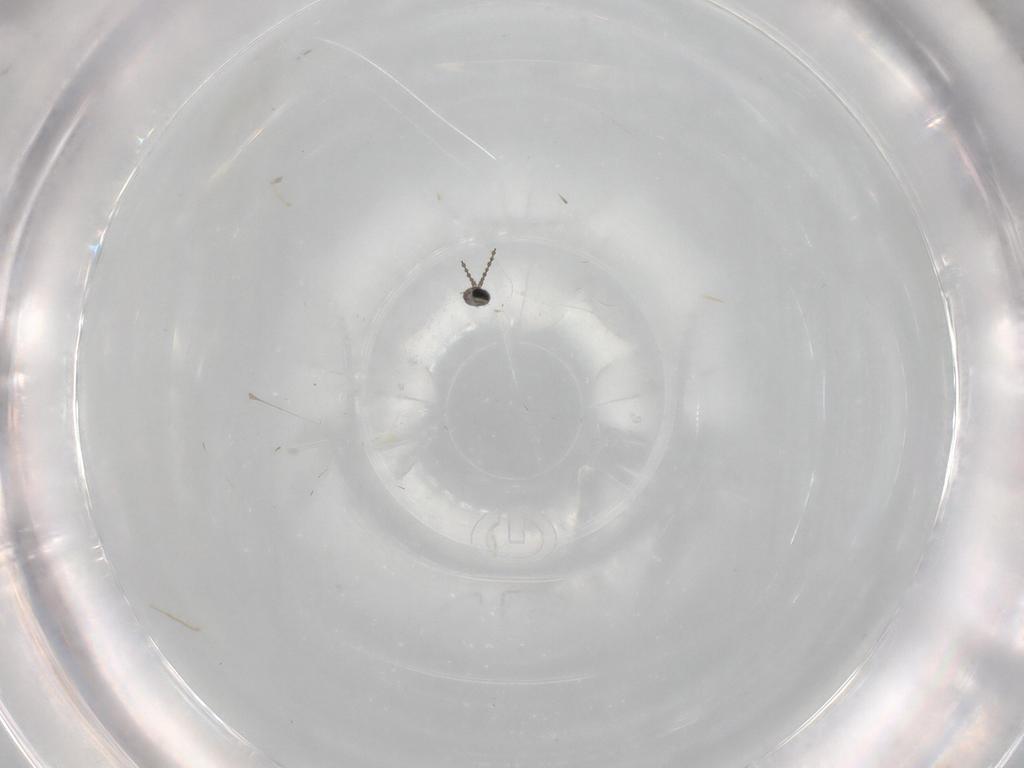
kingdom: Animalia
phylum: Arthropoda
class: Insecta
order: Diptera
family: Cecidomyiidae
